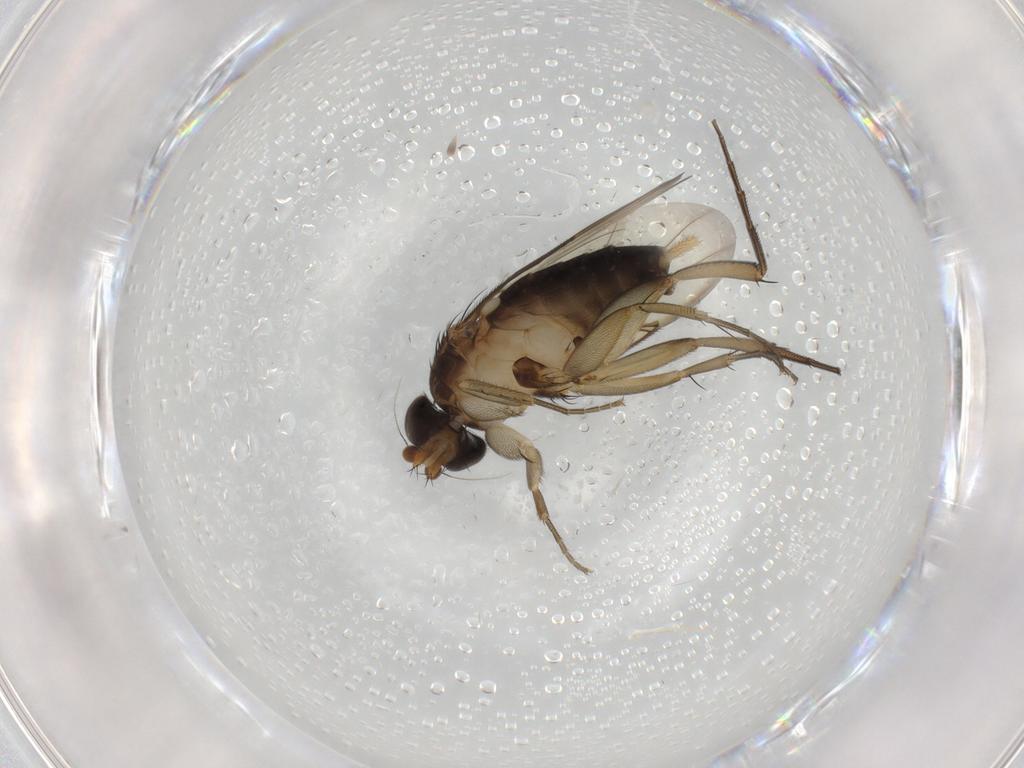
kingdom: Animalia
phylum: Arthropoda
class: Insecta
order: Diptera
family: Phoridae
